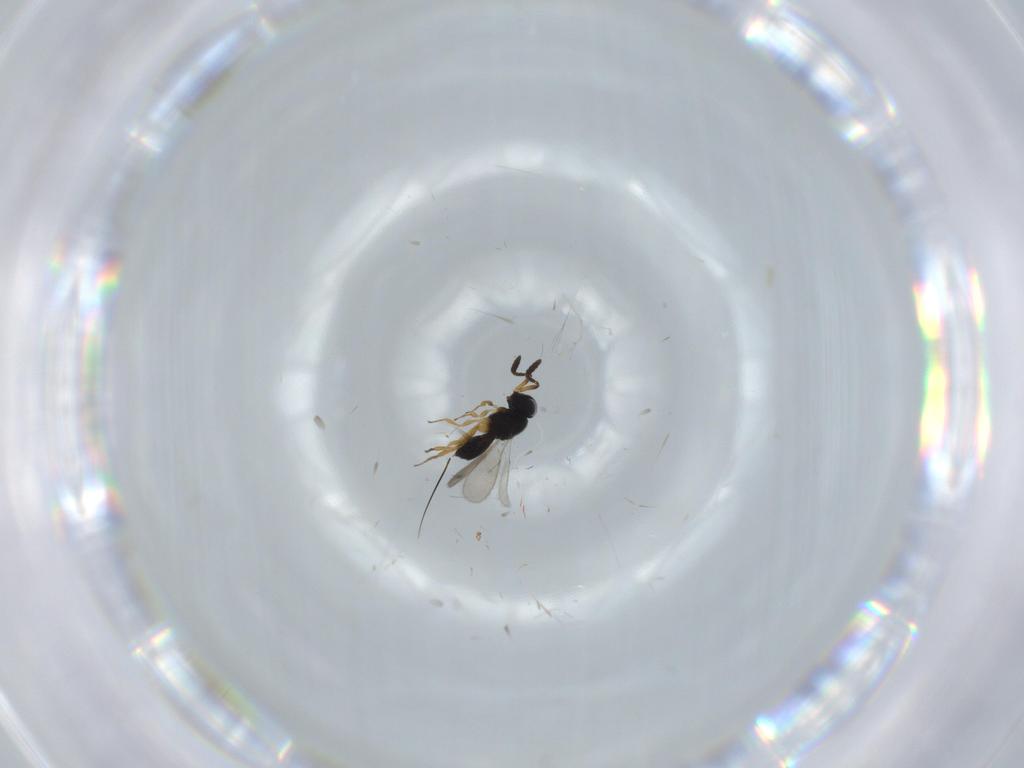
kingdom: Animalia
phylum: Arthropoda
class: Insecta
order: Hymenoptera
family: Scelionidae
